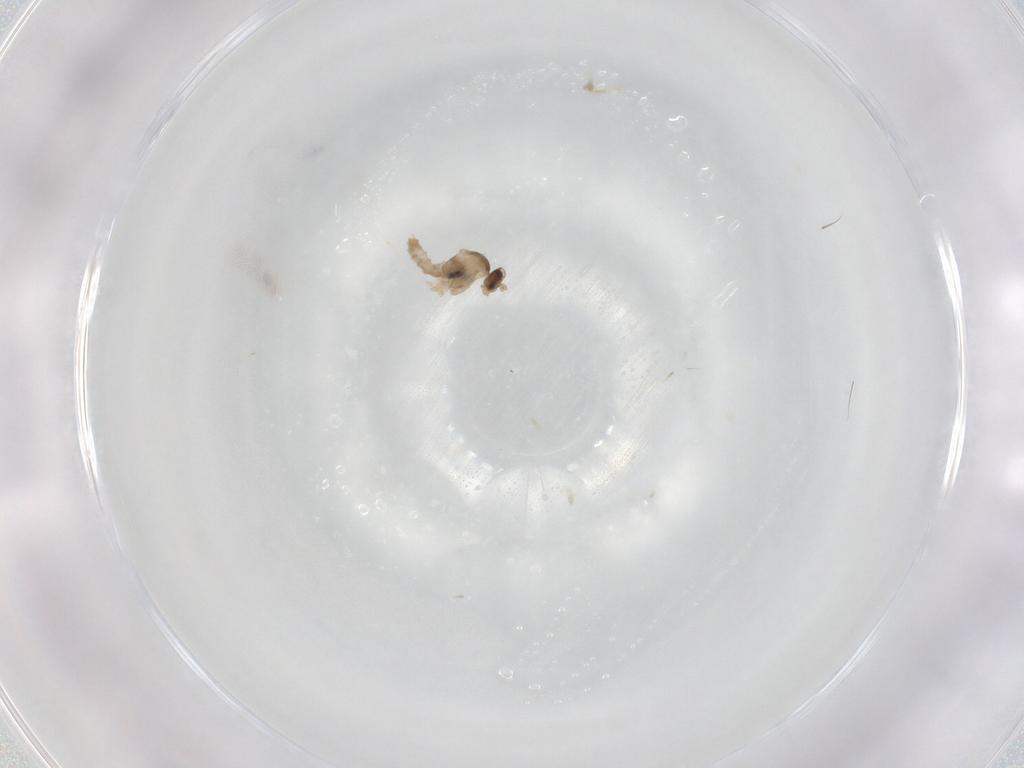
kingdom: Animalia
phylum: Arthropoda
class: Insecta
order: Diptera
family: Cecidomyiidae
